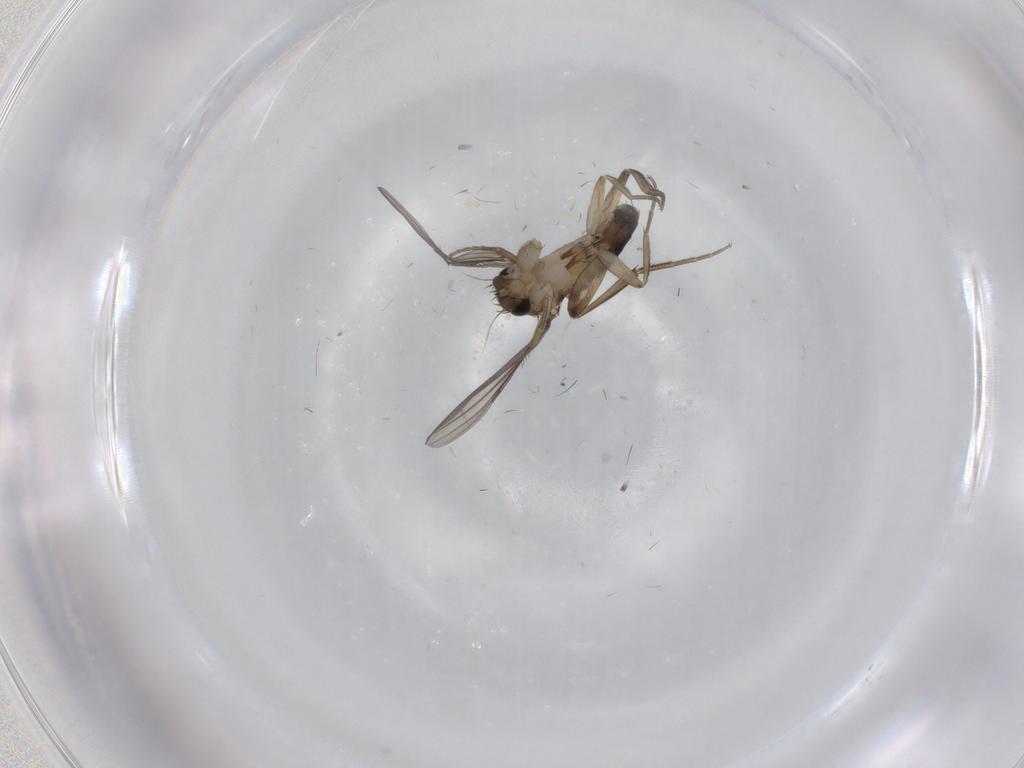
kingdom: Animalia
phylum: Arthropoda
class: Insecta
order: Diptera
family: Phoridae
